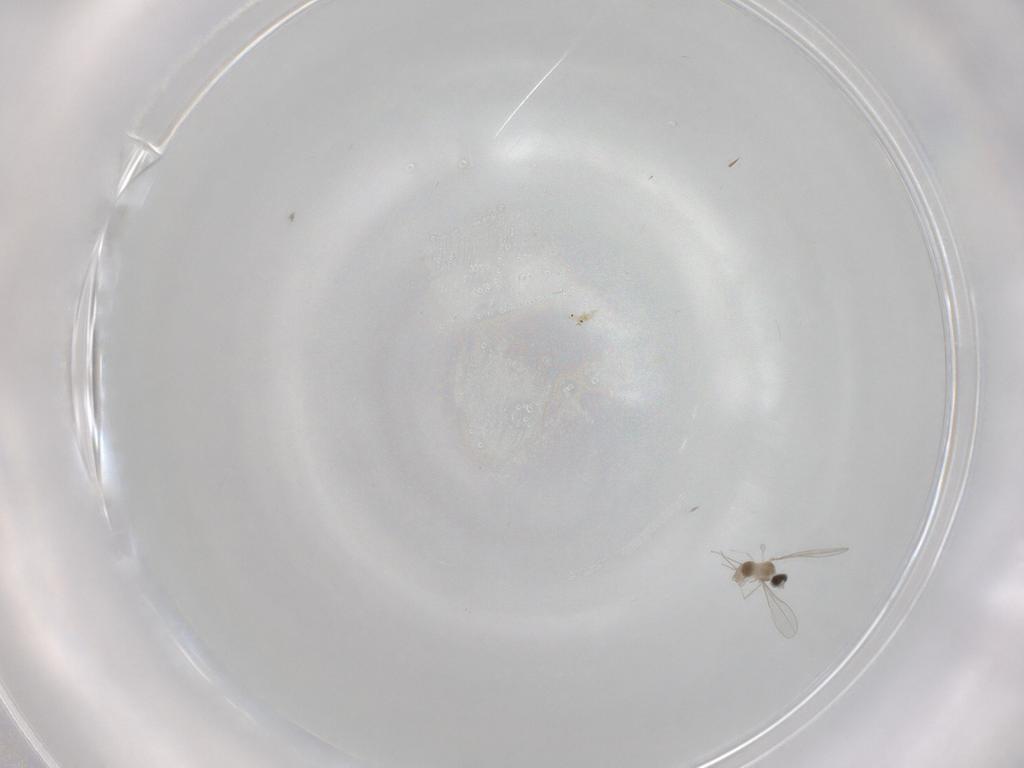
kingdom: Animalia
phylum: Arthropoda
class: Insecta
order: Diptera
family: Cecidomyiidae
